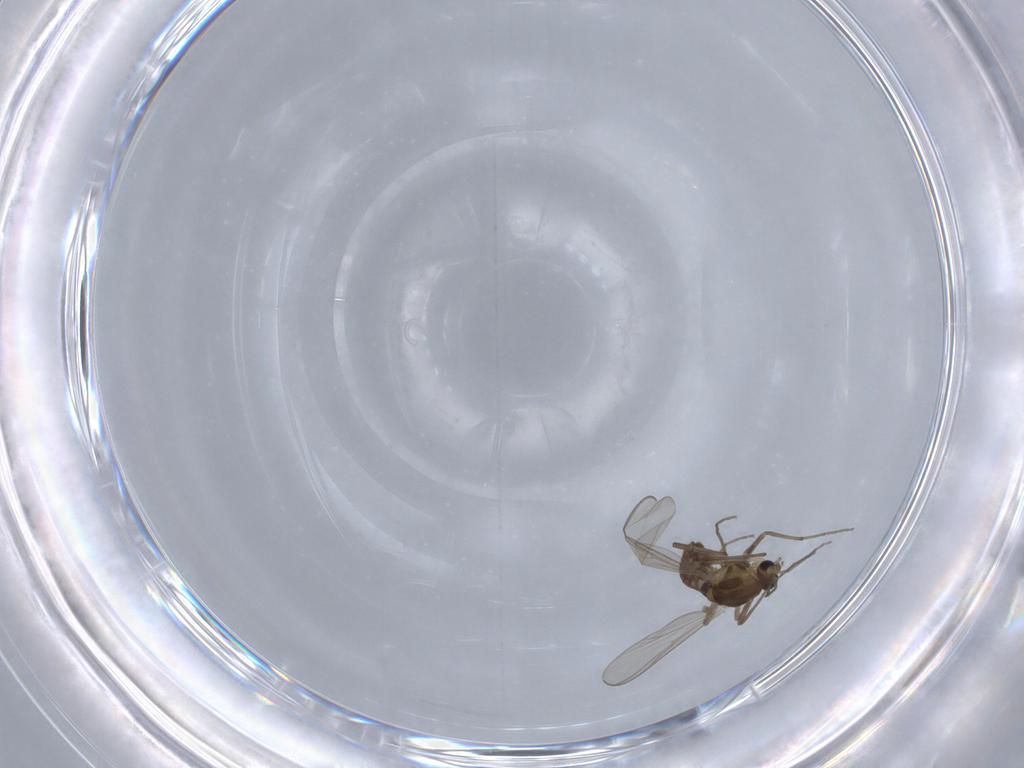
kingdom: Animalia
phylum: Arthropoda
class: Insecta
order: Diptera
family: Chironomidae
